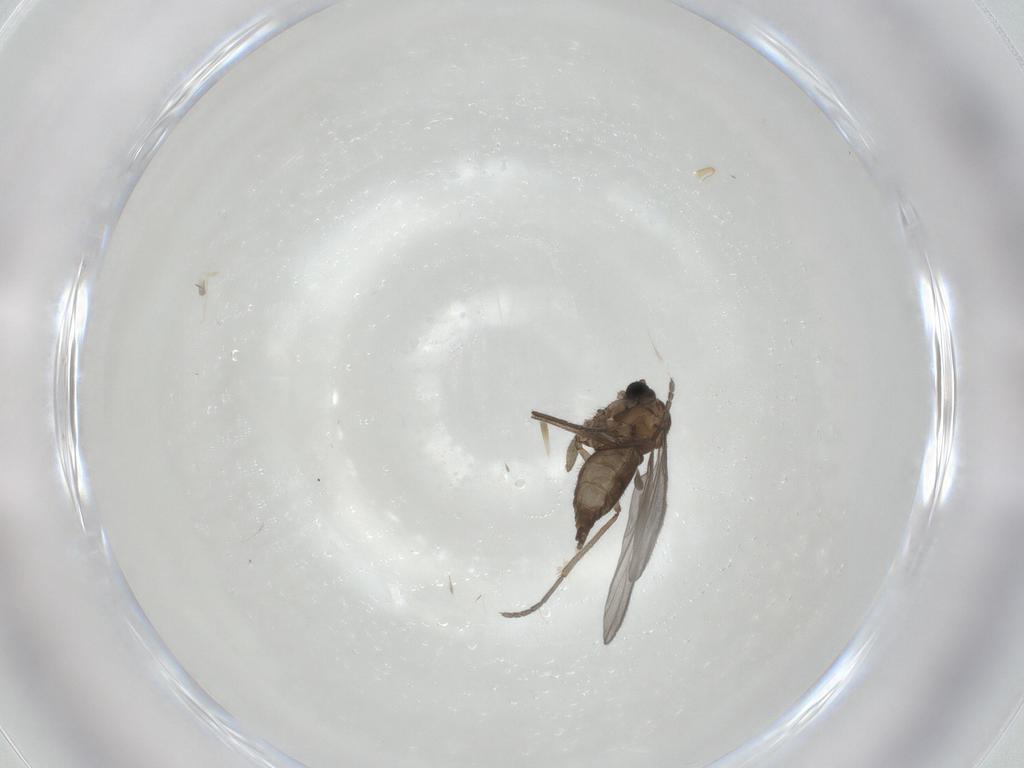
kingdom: Animalia
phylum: Arthropoda
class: Insecta
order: Diptera
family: Sciaridae
